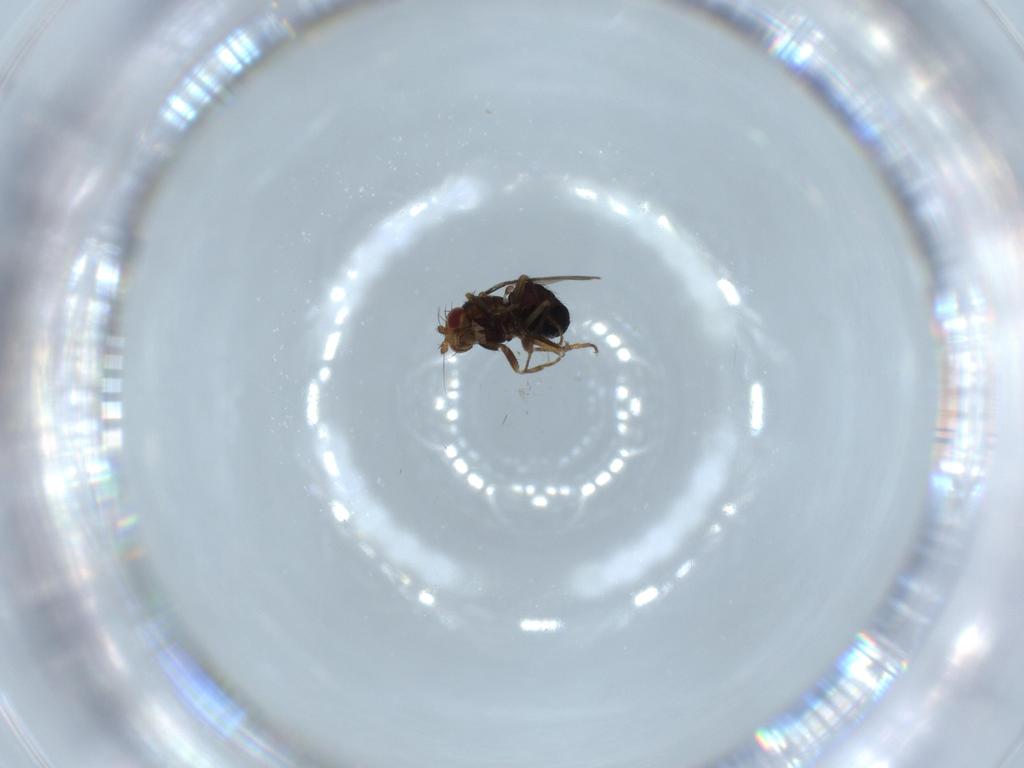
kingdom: Animalia
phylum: Arthropoda
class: Insecta
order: Diptera
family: Sphaeroceridae
